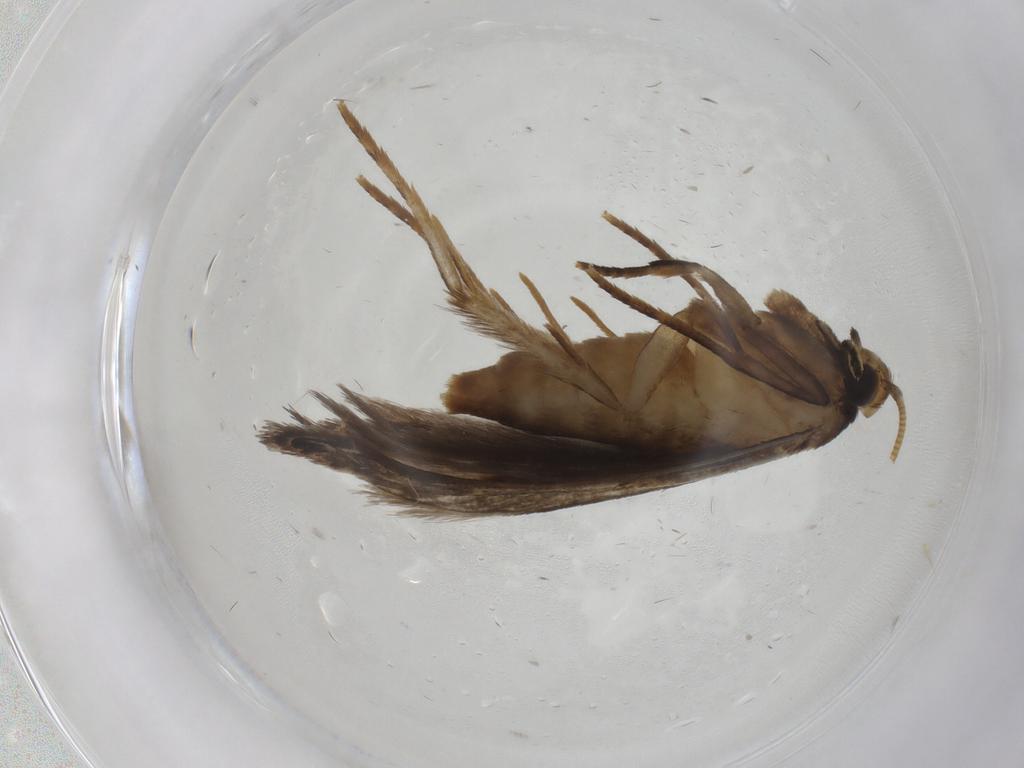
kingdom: Animalia
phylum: Arthropoda
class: Insecta
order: Lepidoptera
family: Tineidae
